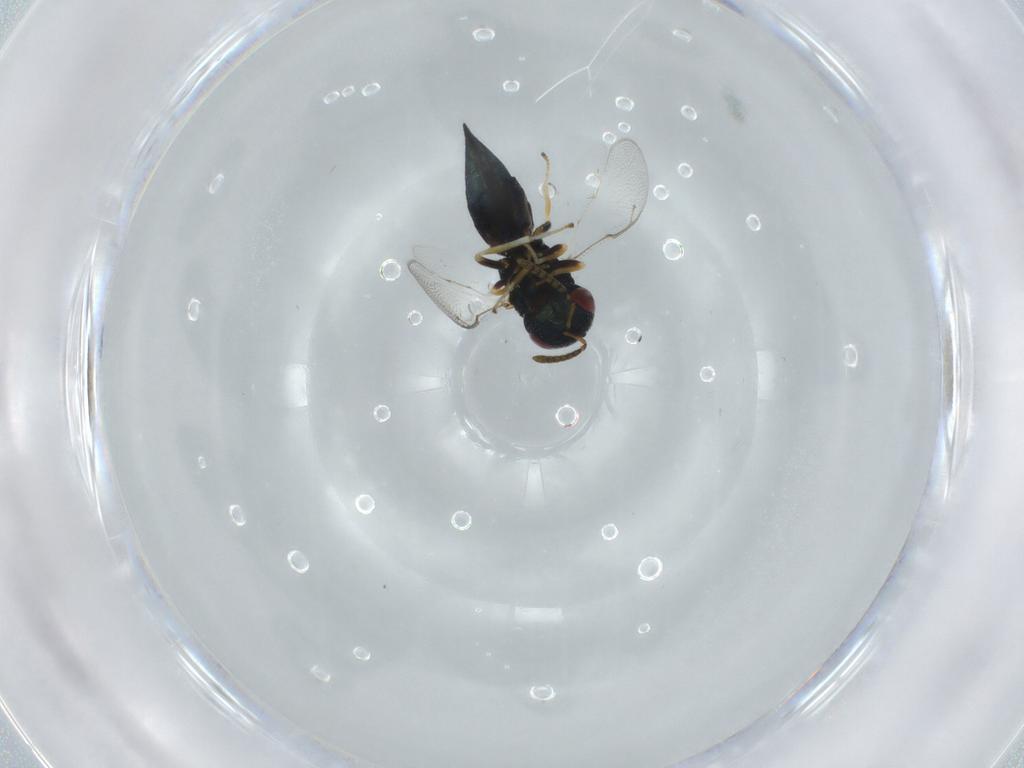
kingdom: Animalia
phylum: Arthropoda
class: Insecta
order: Hymenoptera
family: Pteromalidae
